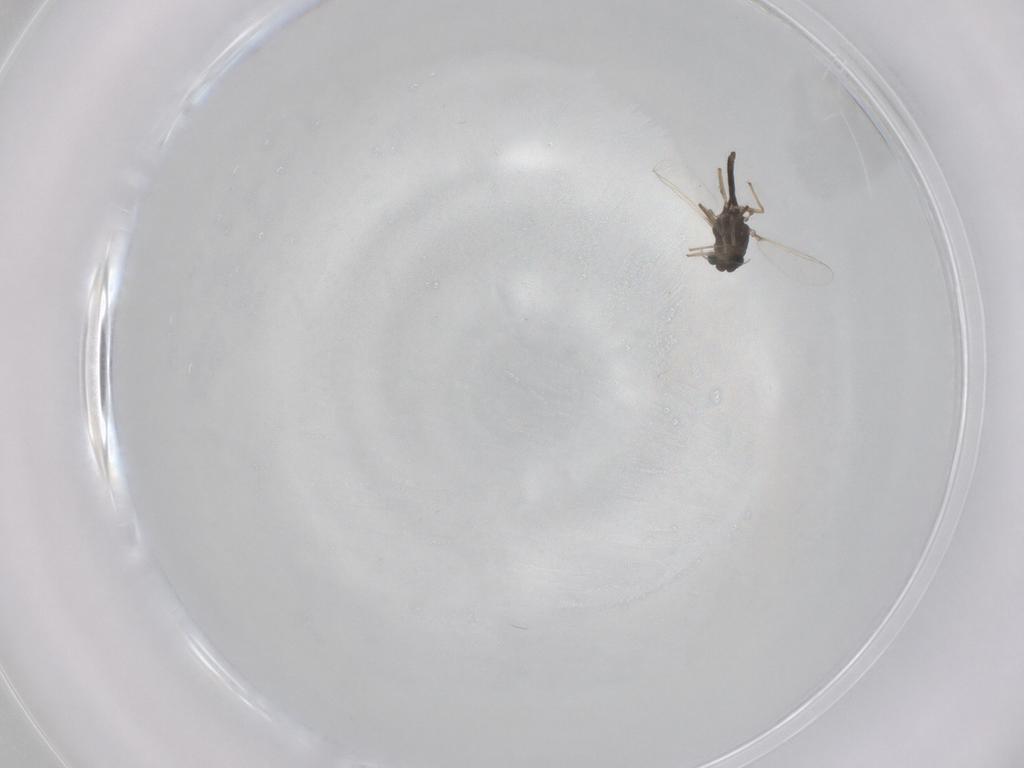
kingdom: Animalia
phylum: Arthropoda
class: Insecta
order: Diptera
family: Chironomidae
